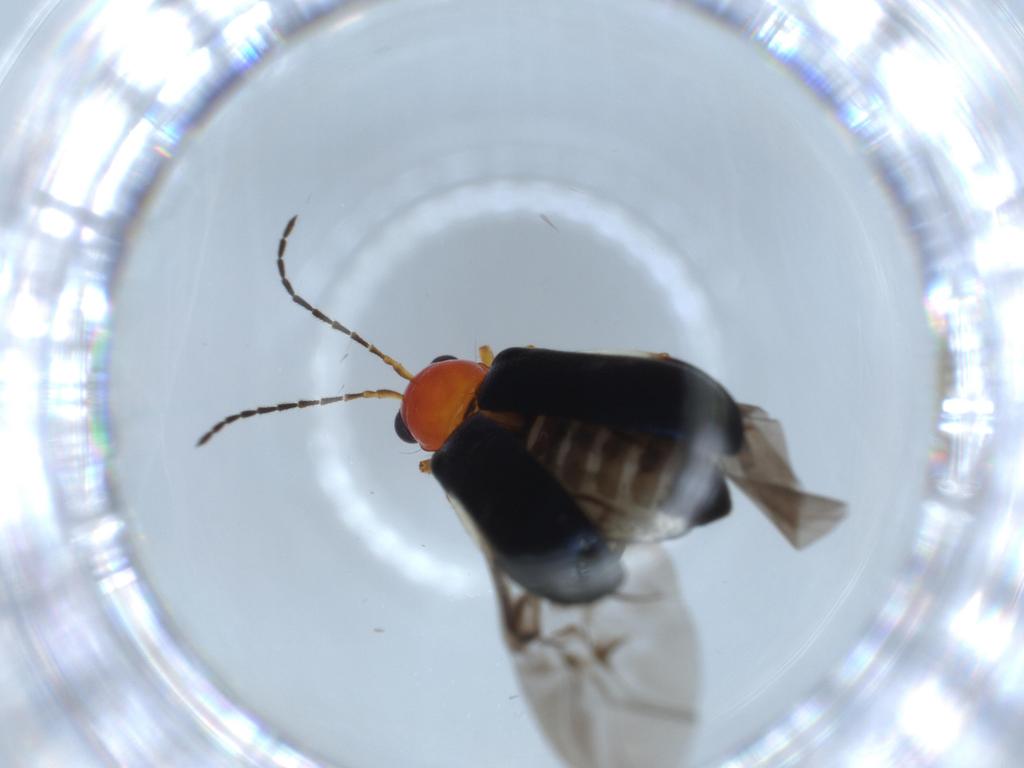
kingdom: Animalia
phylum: Arthropoda
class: Insecta
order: Coleoptera
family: Chrysomelidae
